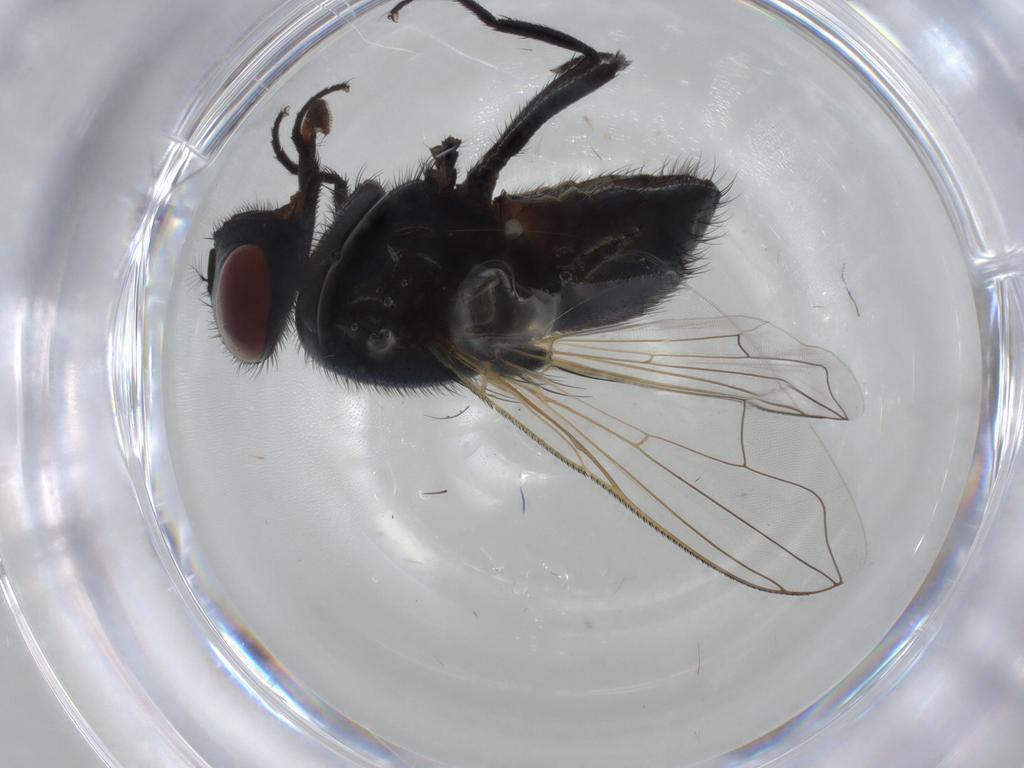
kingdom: Animalia
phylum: Arthropoda
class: Insecta
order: Diptera
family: Muscidae
